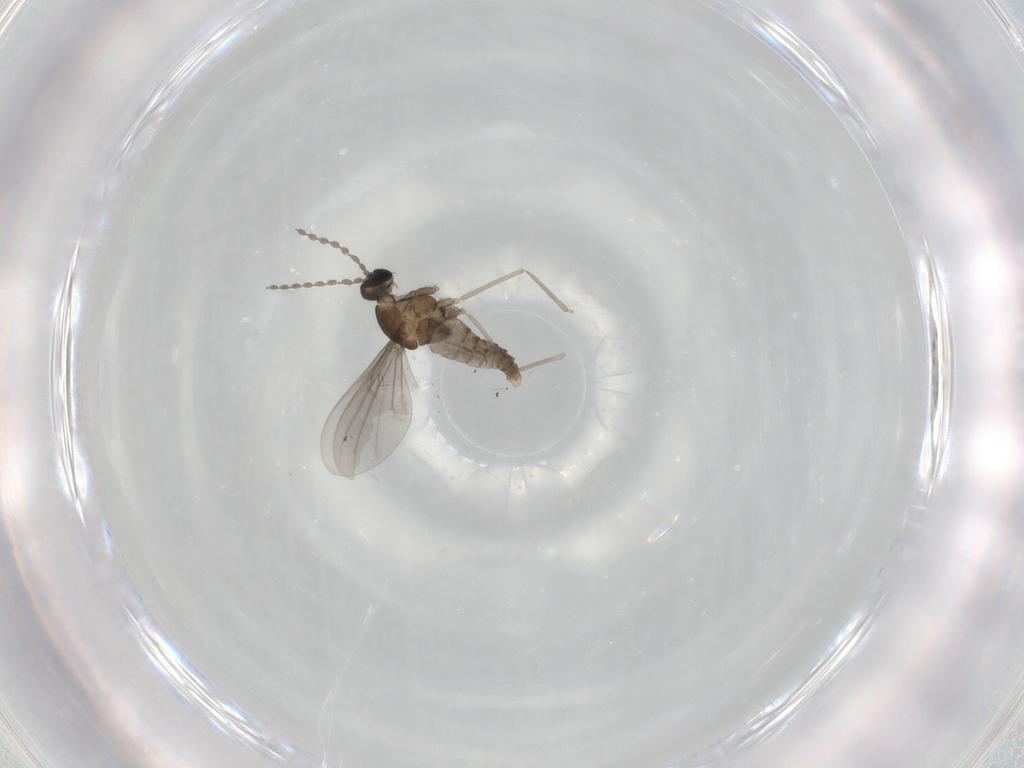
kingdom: Animalia
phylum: Arthropoda
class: Insecta
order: Diptera
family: Cecidomyiidae
